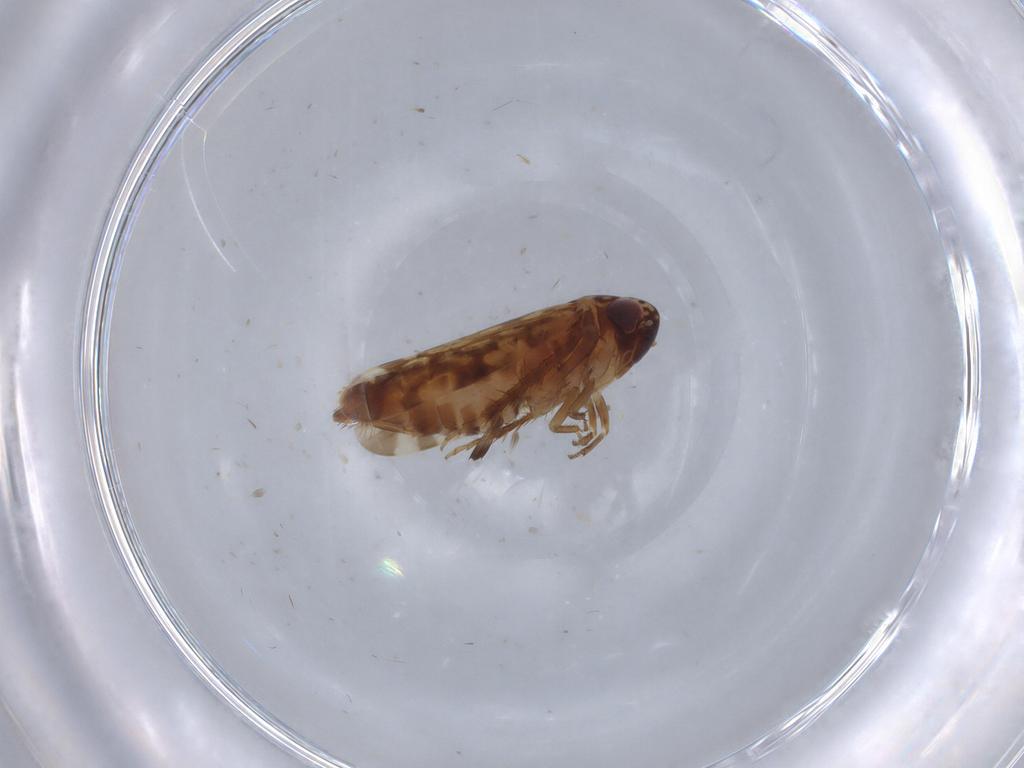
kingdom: Animalia
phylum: Arthropoda
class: Insecta
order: Hemiptera
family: Cicadellidae
